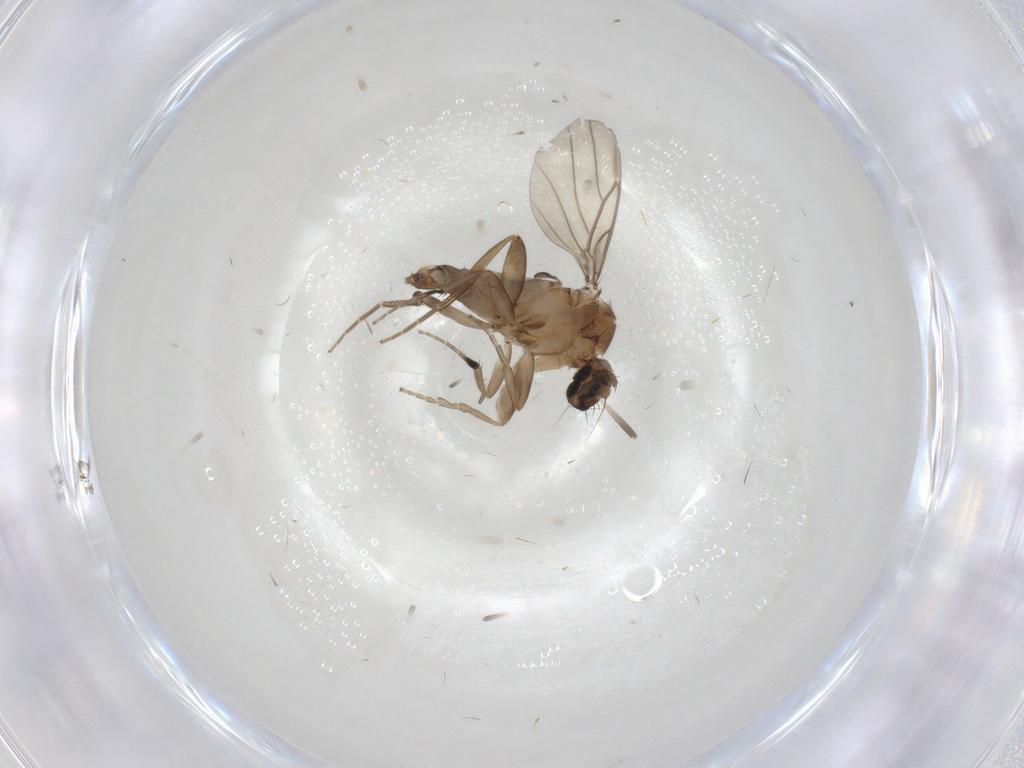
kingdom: Animalia
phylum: Arthropoda
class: Insecta
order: Diptera
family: Phoridae
